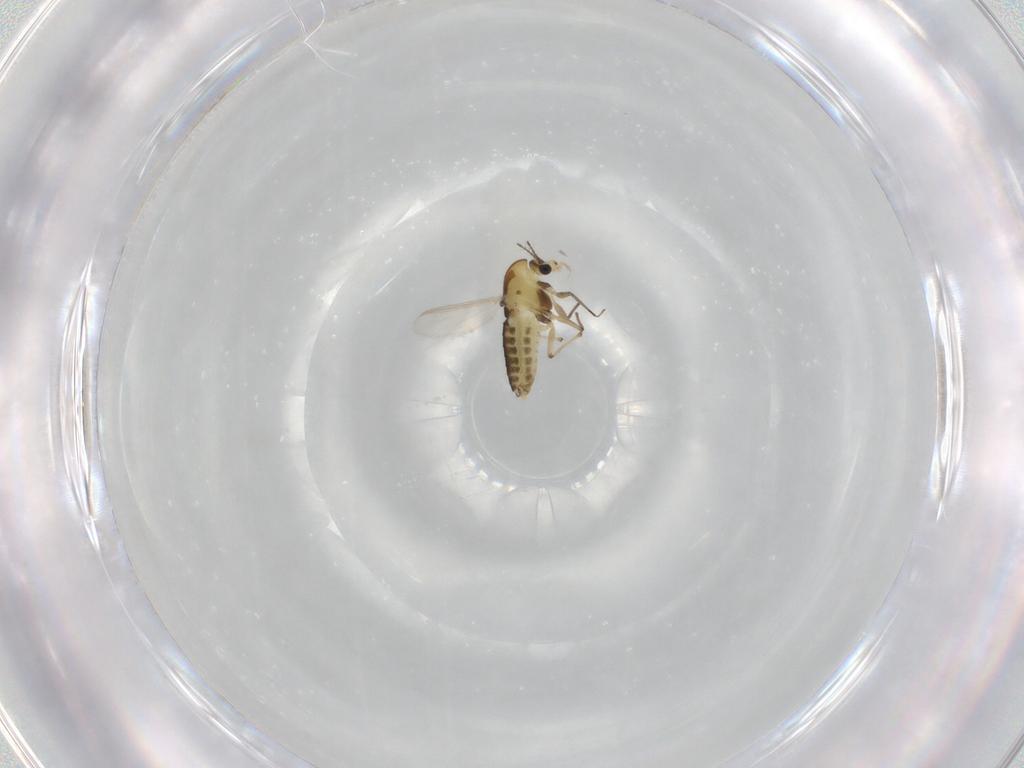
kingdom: Animalia
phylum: Arthropoda
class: Insecta
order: Diptera
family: Chironomidae
